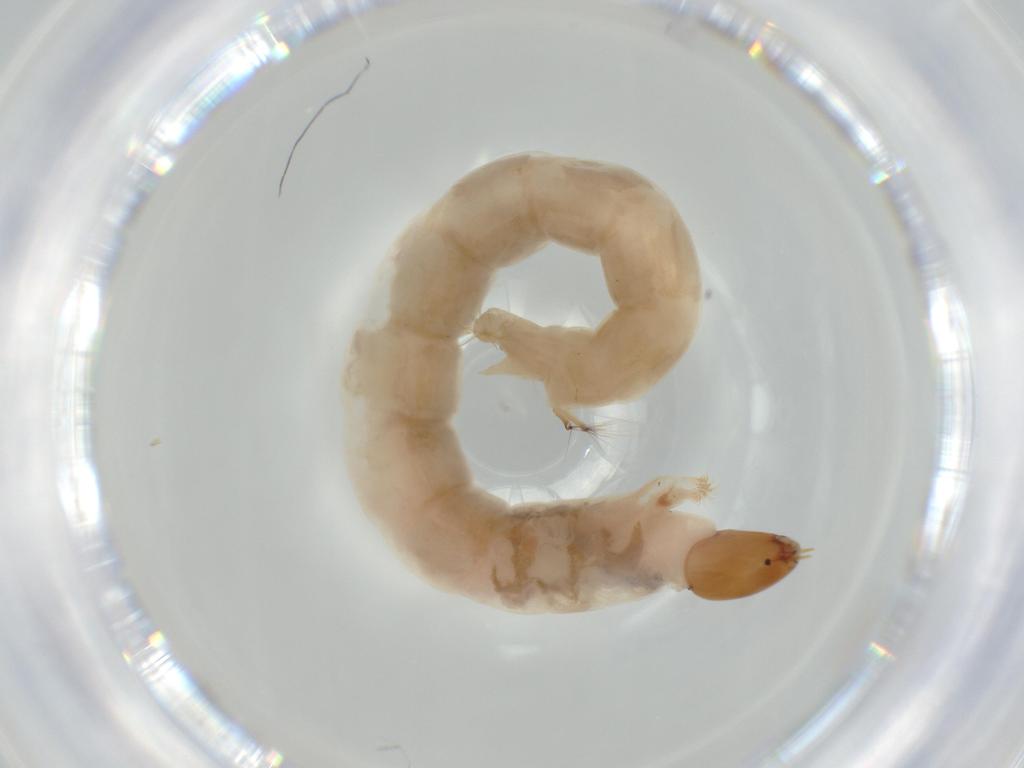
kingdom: Animalia
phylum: Arthropoda
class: Insecta
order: Diptera
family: Chironomidae
